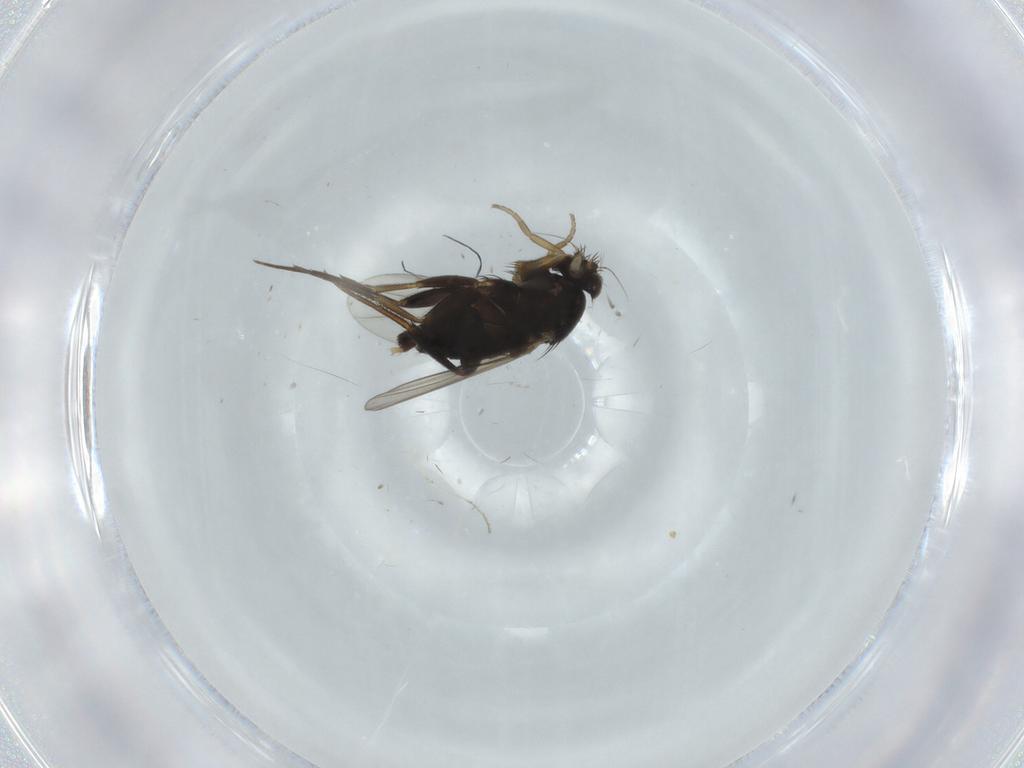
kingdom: Animalia
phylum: Arthropoda
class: Insecta
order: Diptera
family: Phoridae
